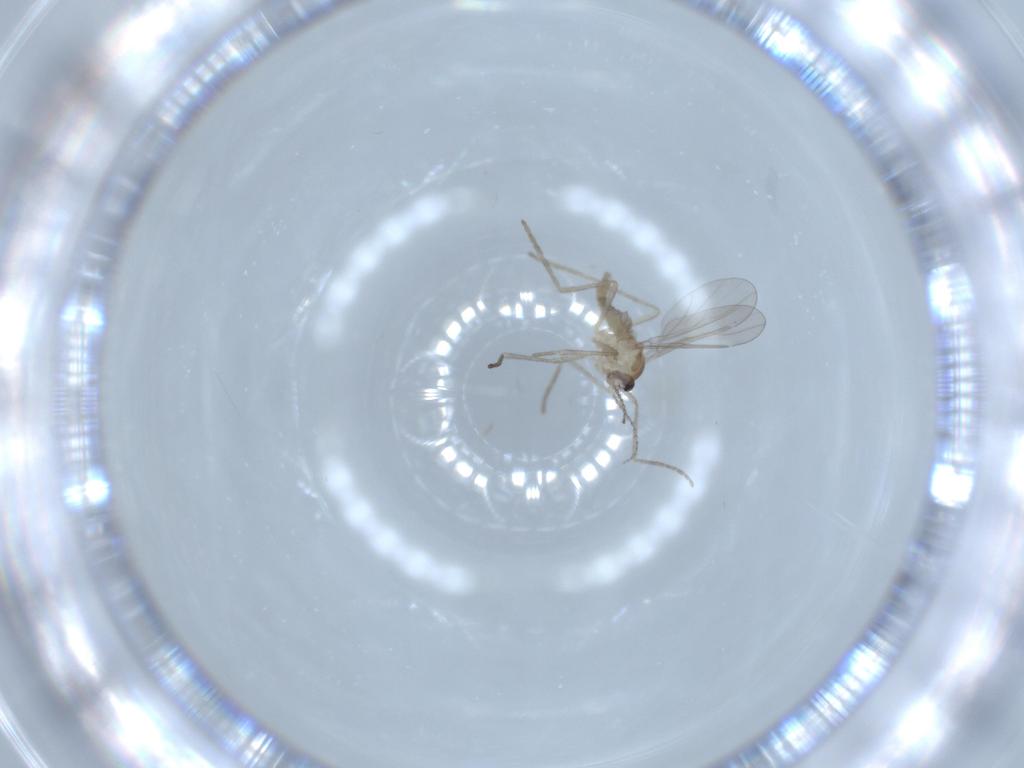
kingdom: Animalia
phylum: Arthropoda
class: Insecta
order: Diptera
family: Cecidomyiidae
